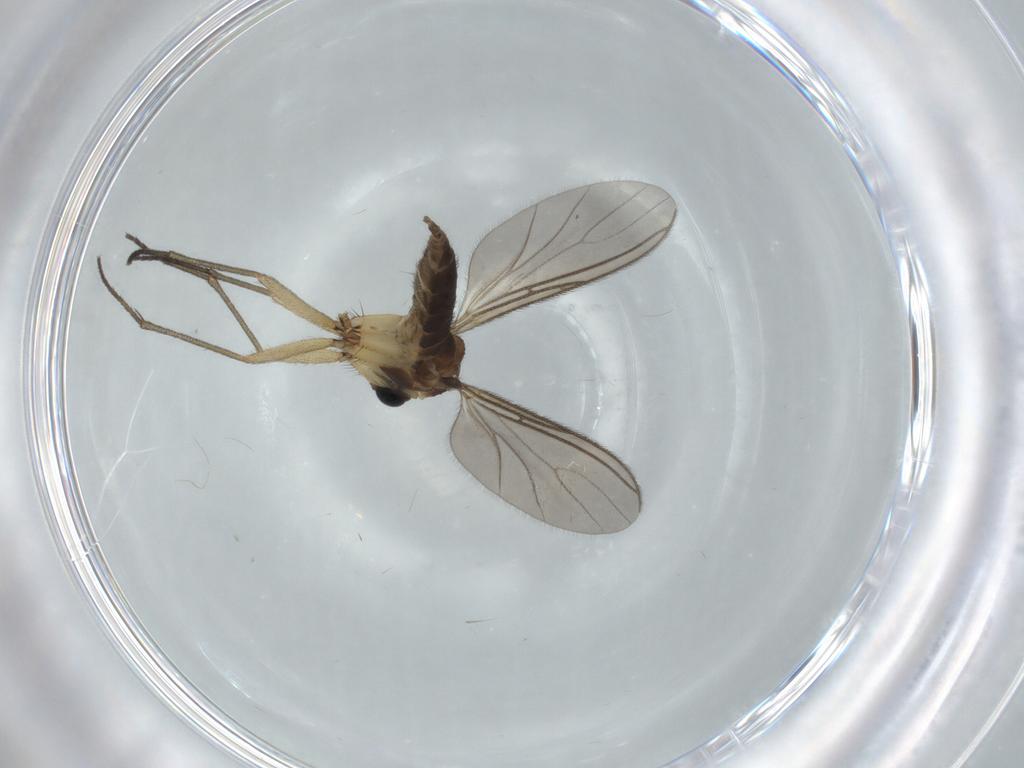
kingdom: Animalia
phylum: Arthropoda
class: Insecta
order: Diptera
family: Sciaridae
